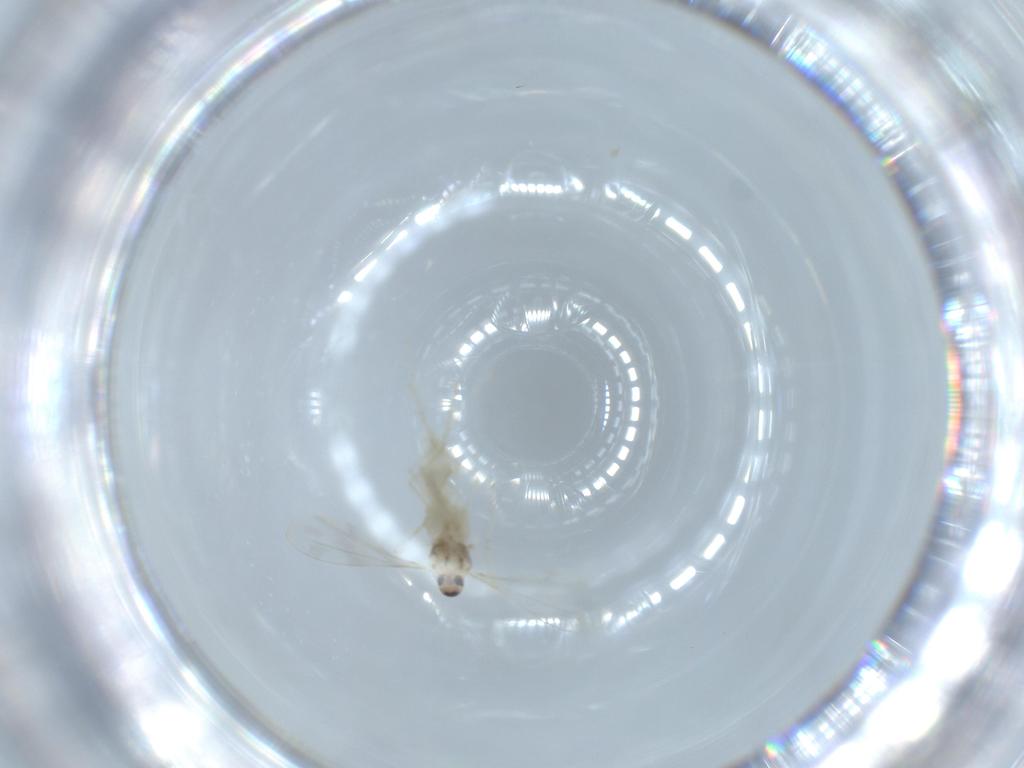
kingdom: Animalia
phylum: Arthropoda
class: Insecta
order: Diptera
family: Cecidomyiidae
